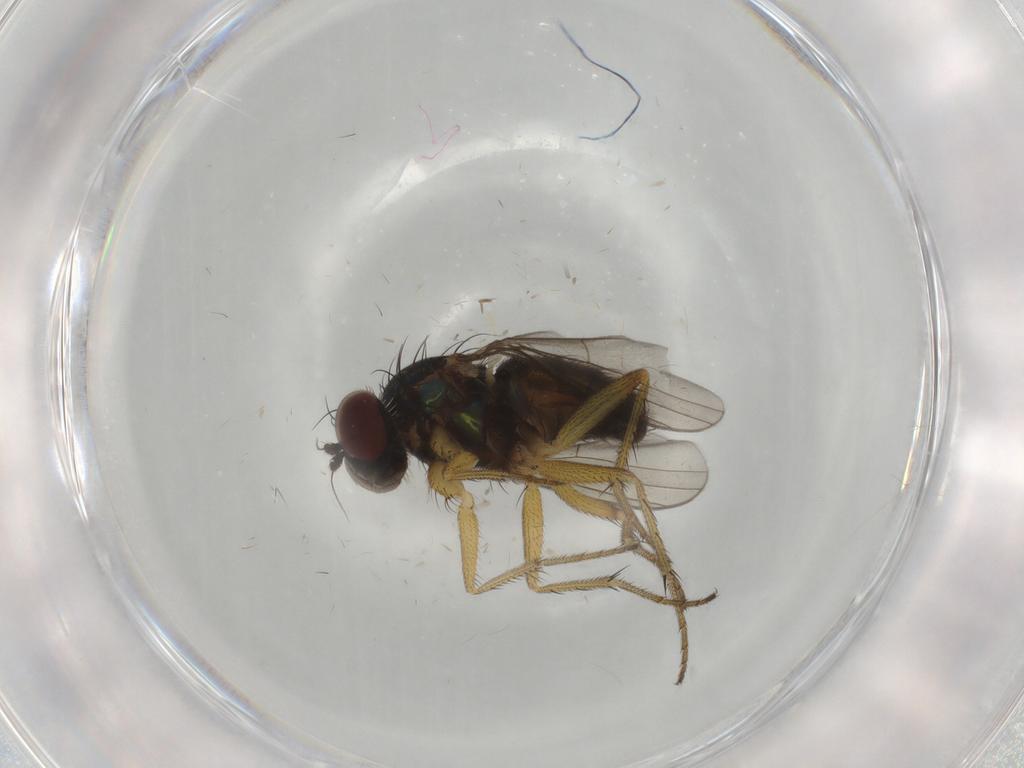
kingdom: Animalia
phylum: Arthropoda
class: Insecta
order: Diptera
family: Dolichopodidae
